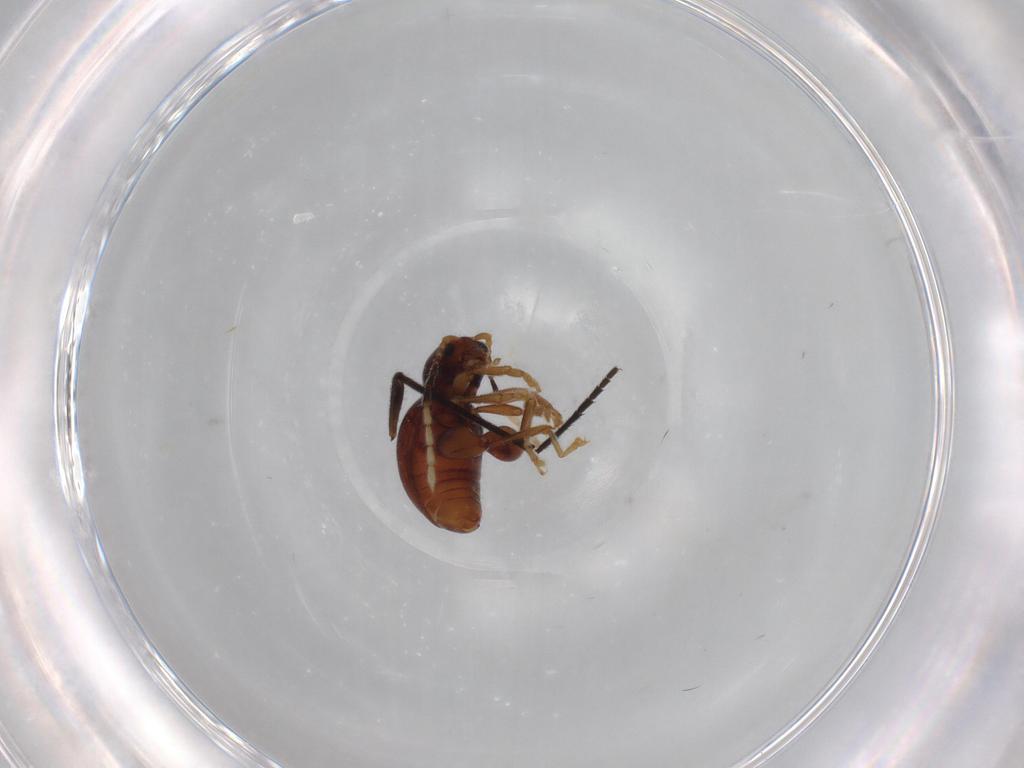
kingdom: Animalia
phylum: Arthropoda
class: Insecta
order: Coleoptera
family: Chrysomelidae
